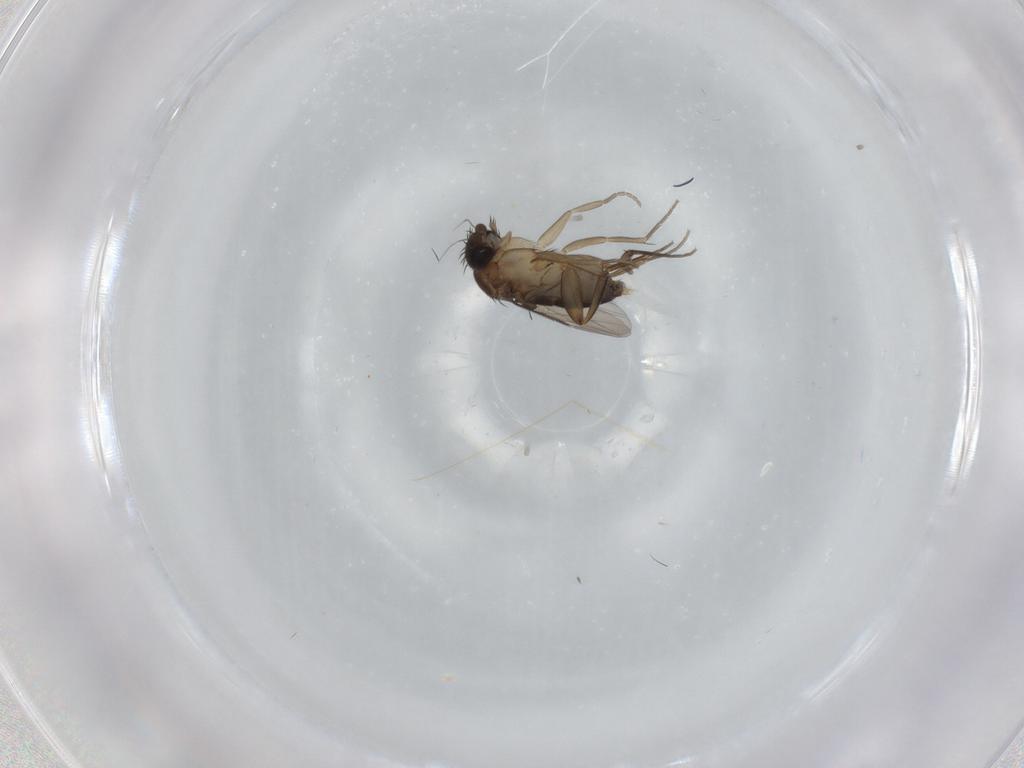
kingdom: Animalia
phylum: Arthropoda
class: Insecta
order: Diptera
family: Phoridae
